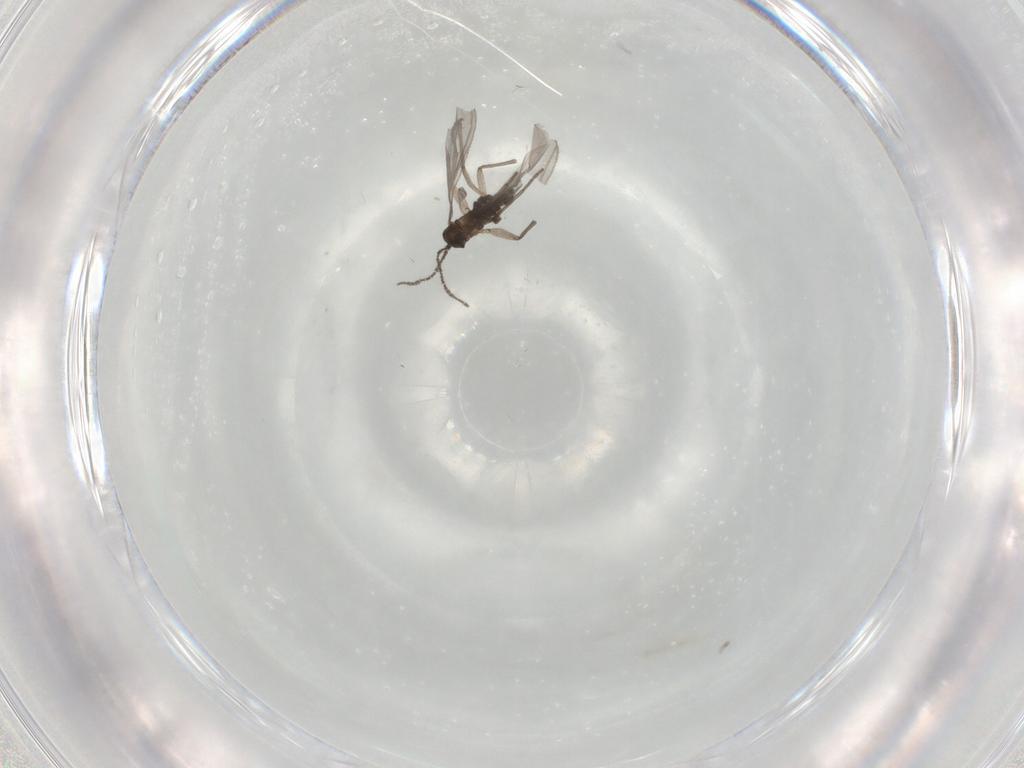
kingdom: Animalia
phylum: Arthropoda
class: Insecta
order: Diptera
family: Sciaridae
